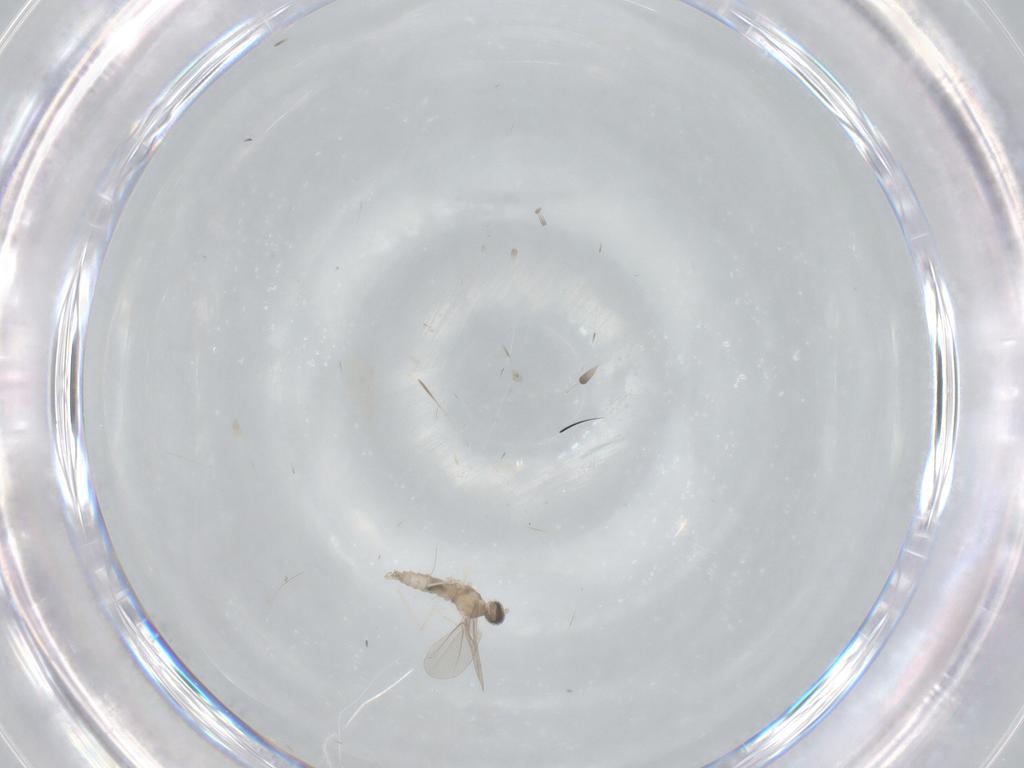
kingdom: Animalia
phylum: Arthropoda
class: Insecta
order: Diptera
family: Cecidomyiidae
